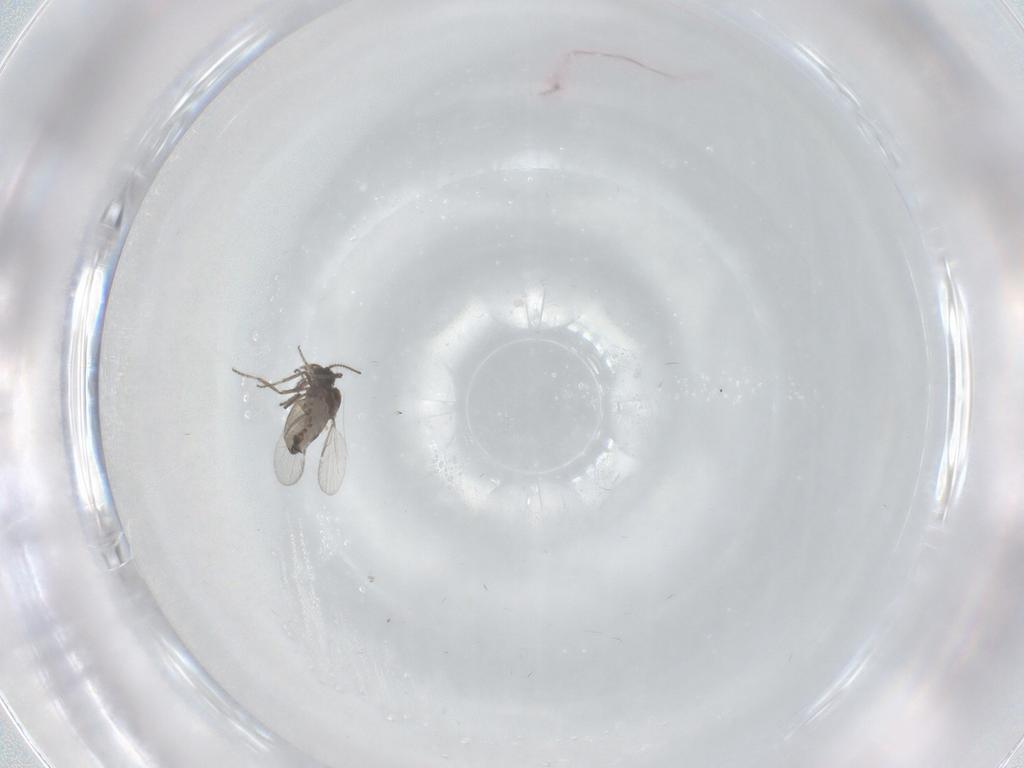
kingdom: Animalia
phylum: Arthropoda
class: Insecta
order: Diptera
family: Ceratopogonidae
